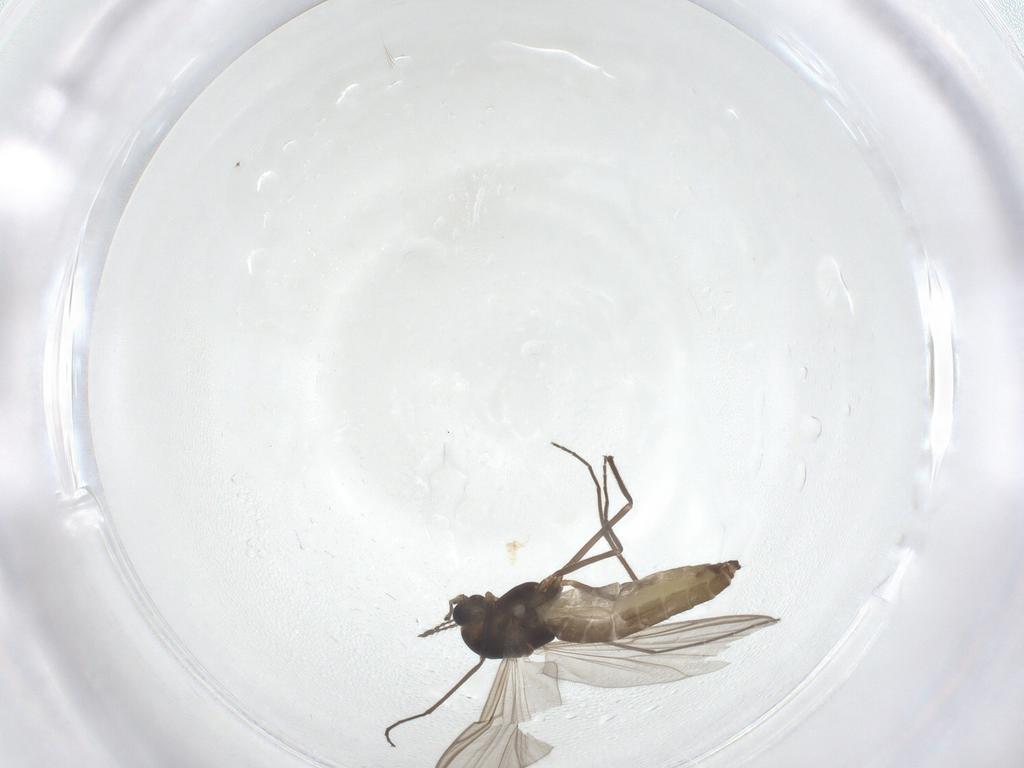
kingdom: Animalia
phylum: Arthropoda
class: Insecta
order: Diptera
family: Chironomidae
